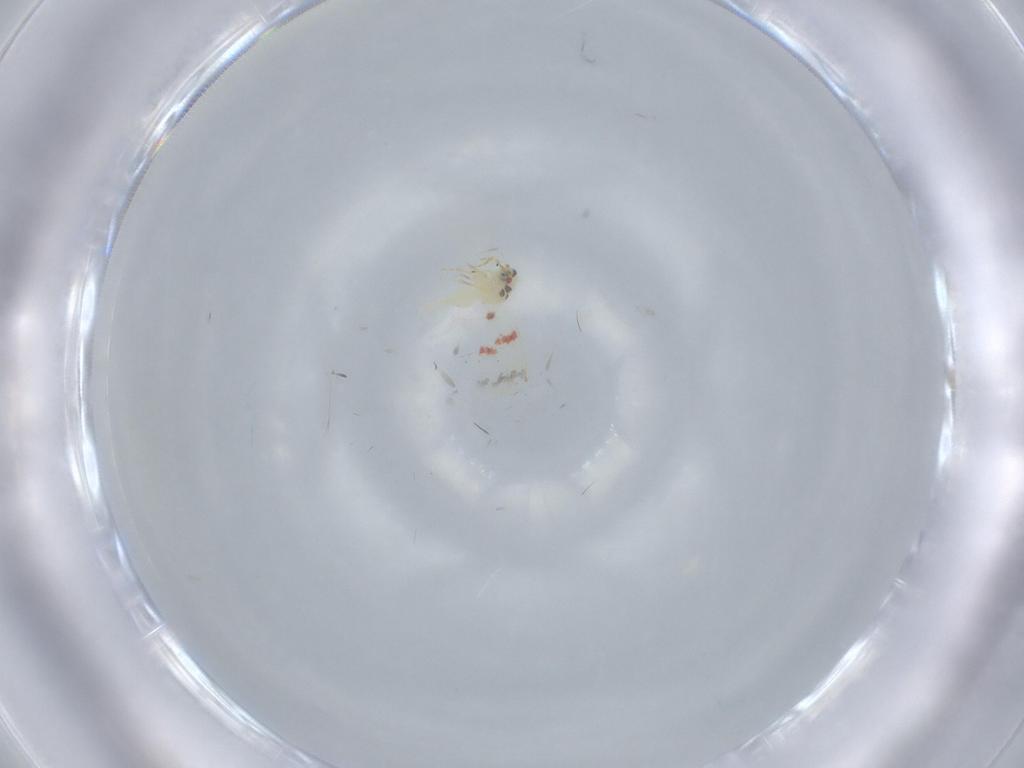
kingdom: Animalia
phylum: Arthropoda
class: Insecta
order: Hemiptera
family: Aleyrodidae
